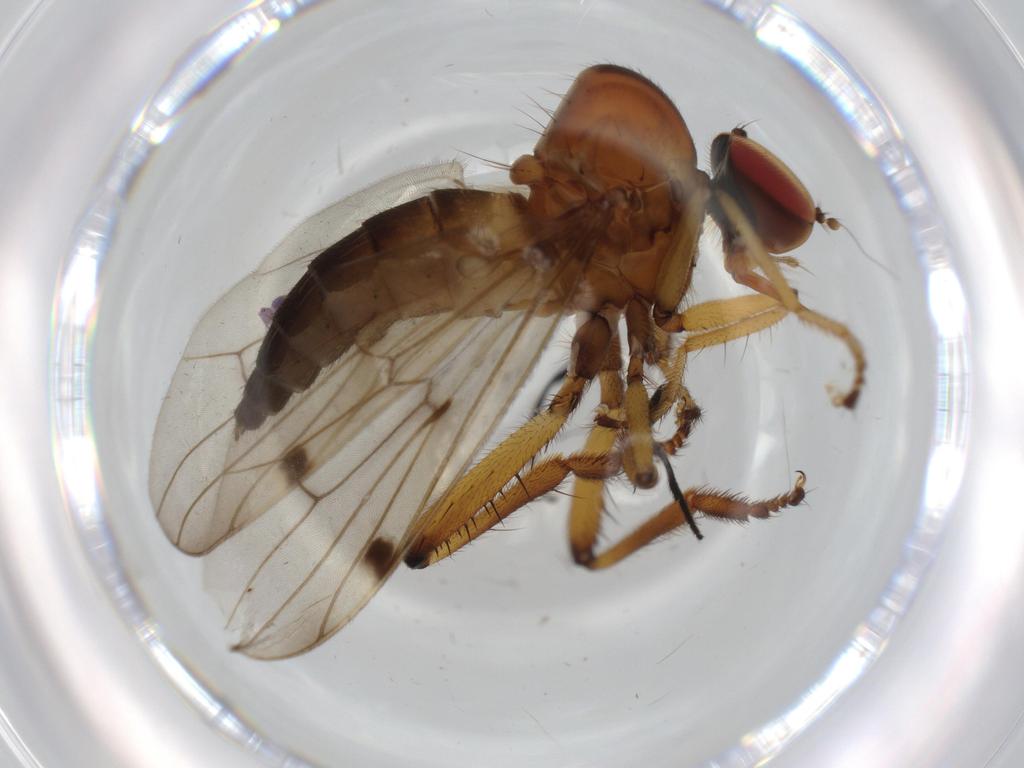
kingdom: Animalia
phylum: Arthropoda
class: Insecta
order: Diptera
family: Hybotidae
